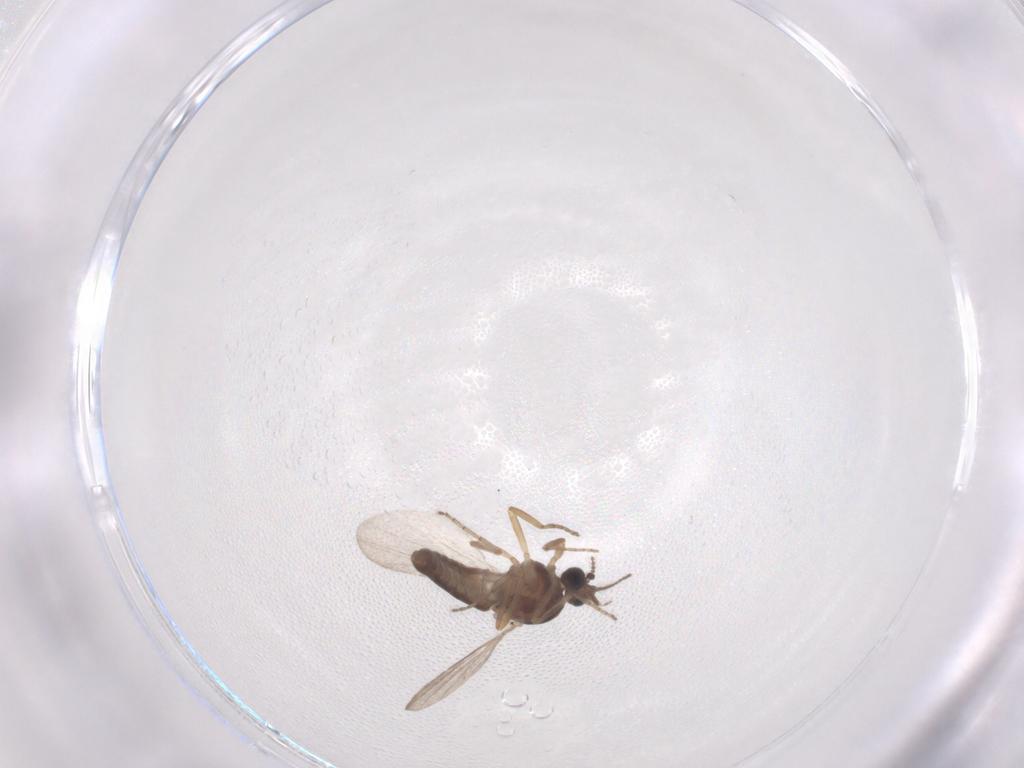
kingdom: Animalia
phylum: Arthropoda
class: Insecta
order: Diptera
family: Ceratopogonidae
